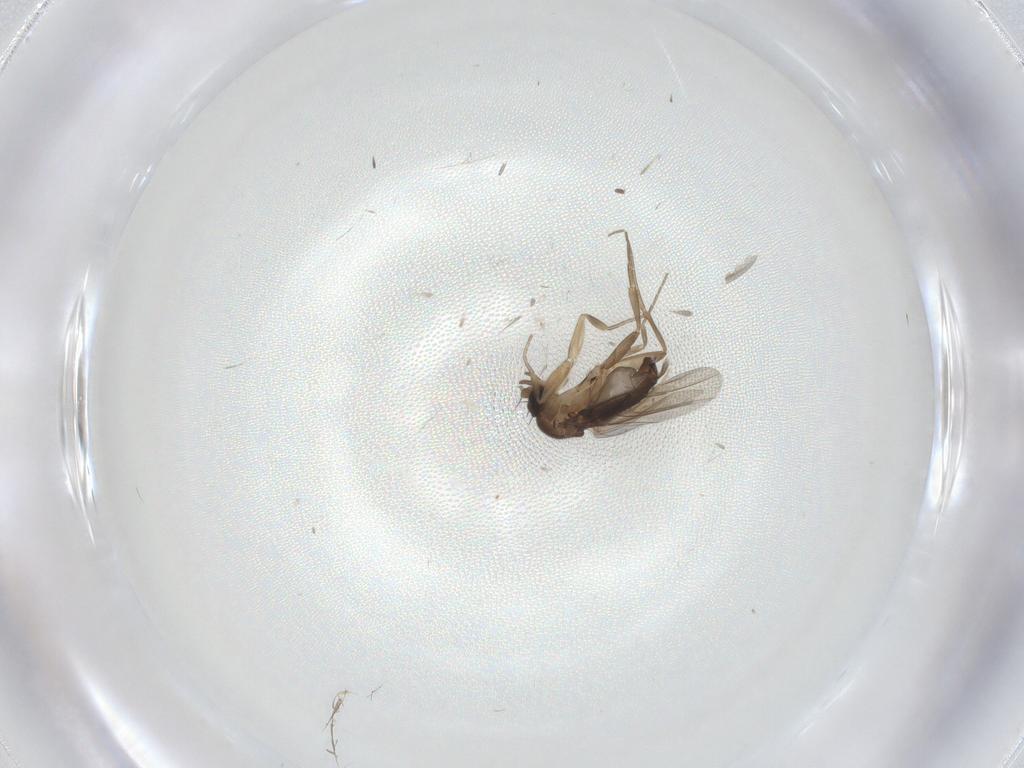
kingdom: Animalia
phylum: Arthropoda
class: Insecta
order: Diptera
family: Phoridae
